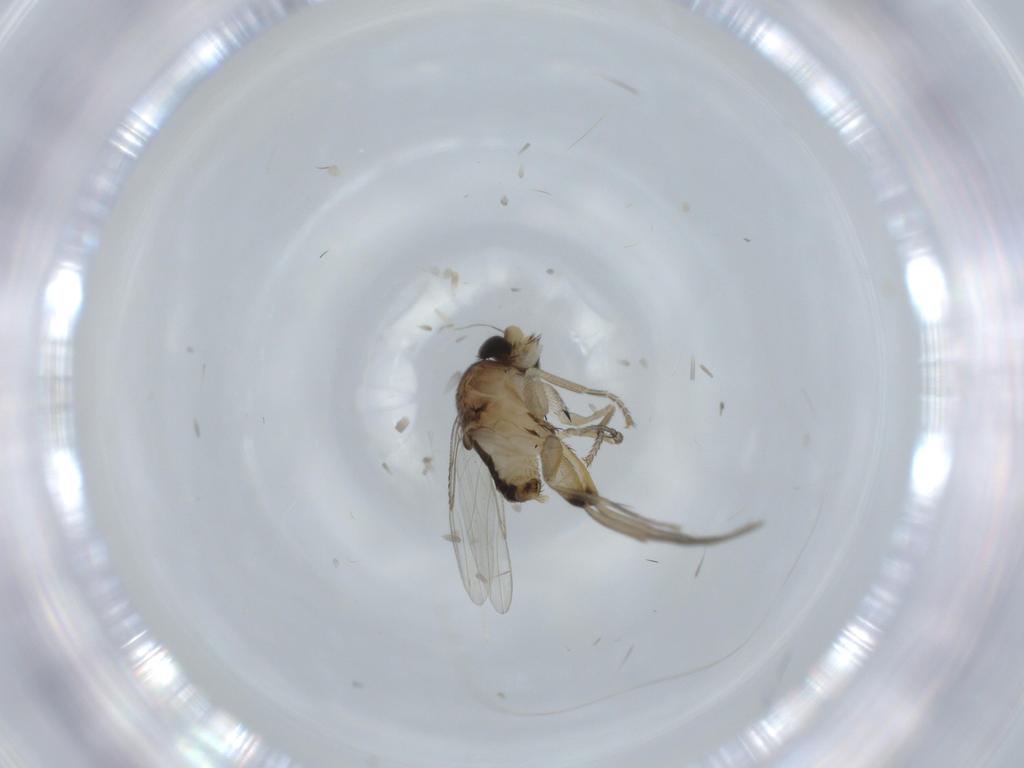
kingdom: Animalia
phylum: Arthropoda
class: Insecta
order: Diptera
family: Phoridae
